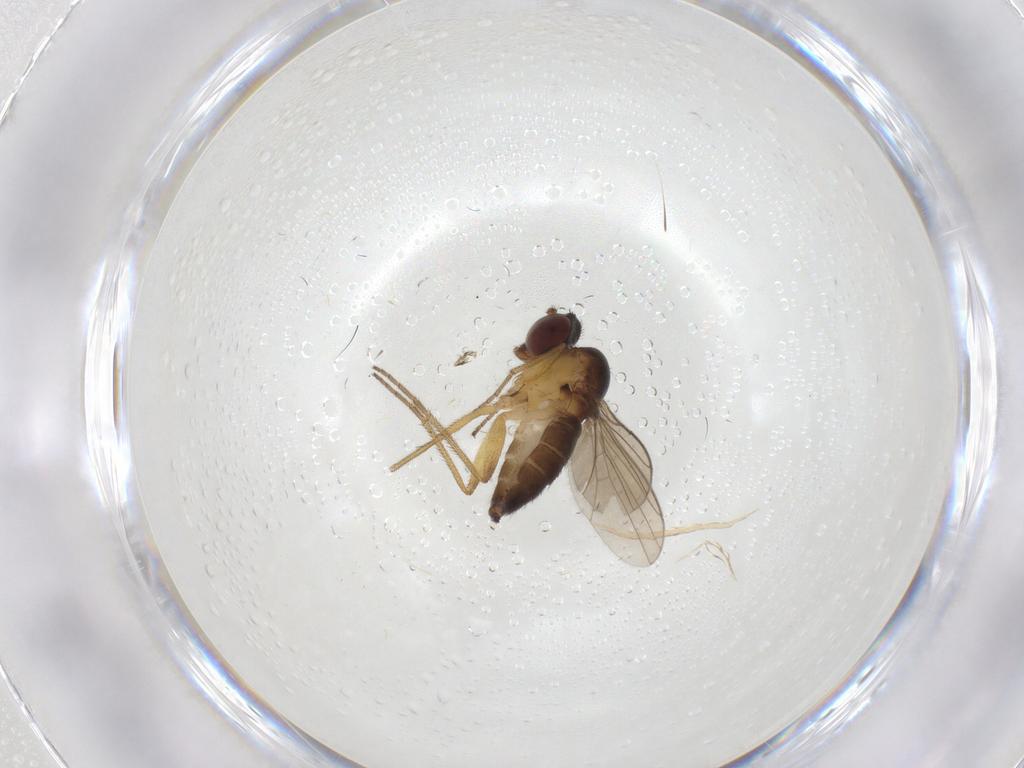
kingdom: Animalia
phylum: Arthropoda
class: Insecta
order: Diptera
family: Dolichopodidae
